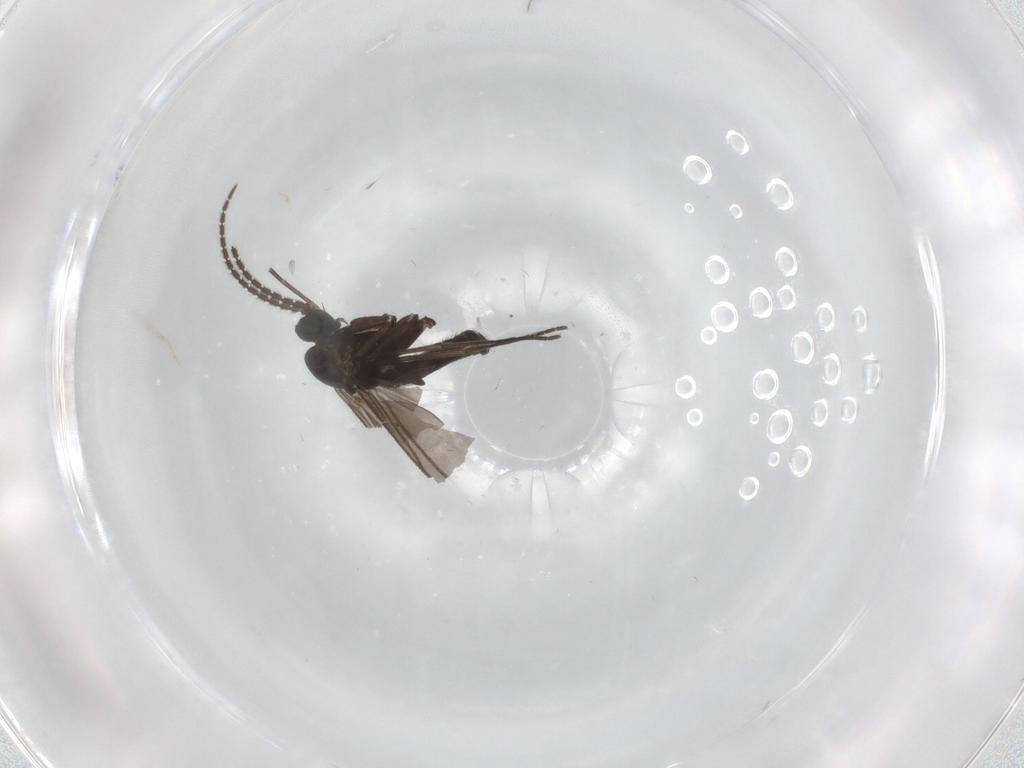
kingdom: Animalia
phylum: Arthropoda
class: Insecta
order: Diptera
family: Sciaridae
